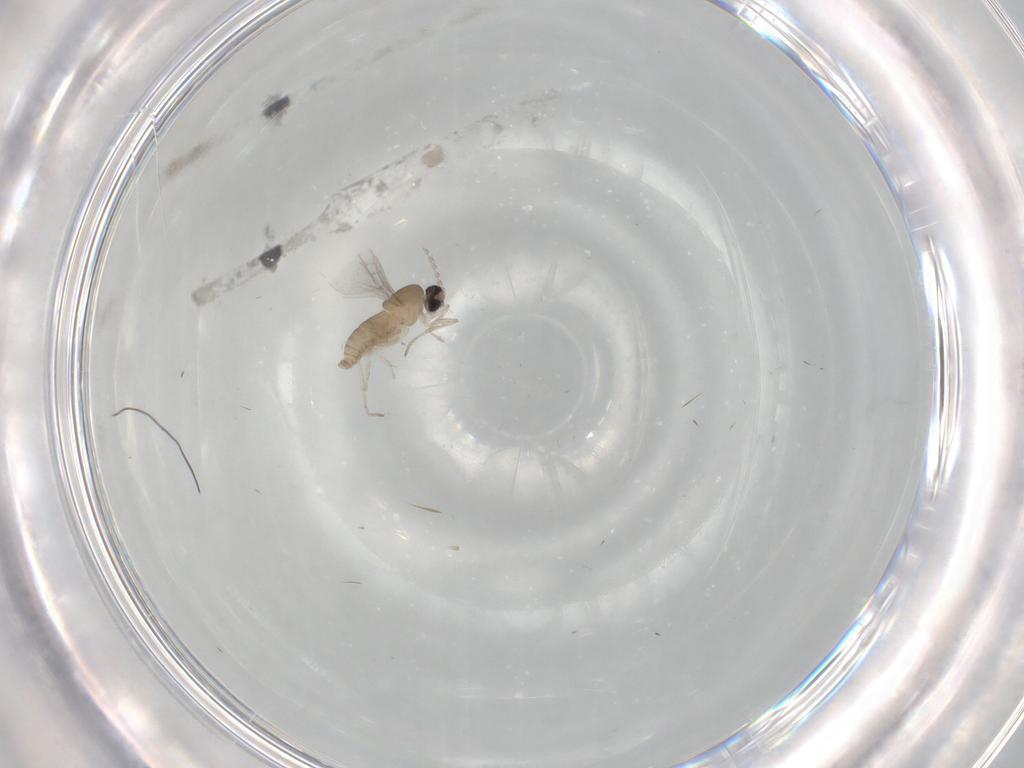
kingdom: Animalia
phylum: Arthropoda
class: Insecta
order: Diptera
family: Cecidomyiidae
